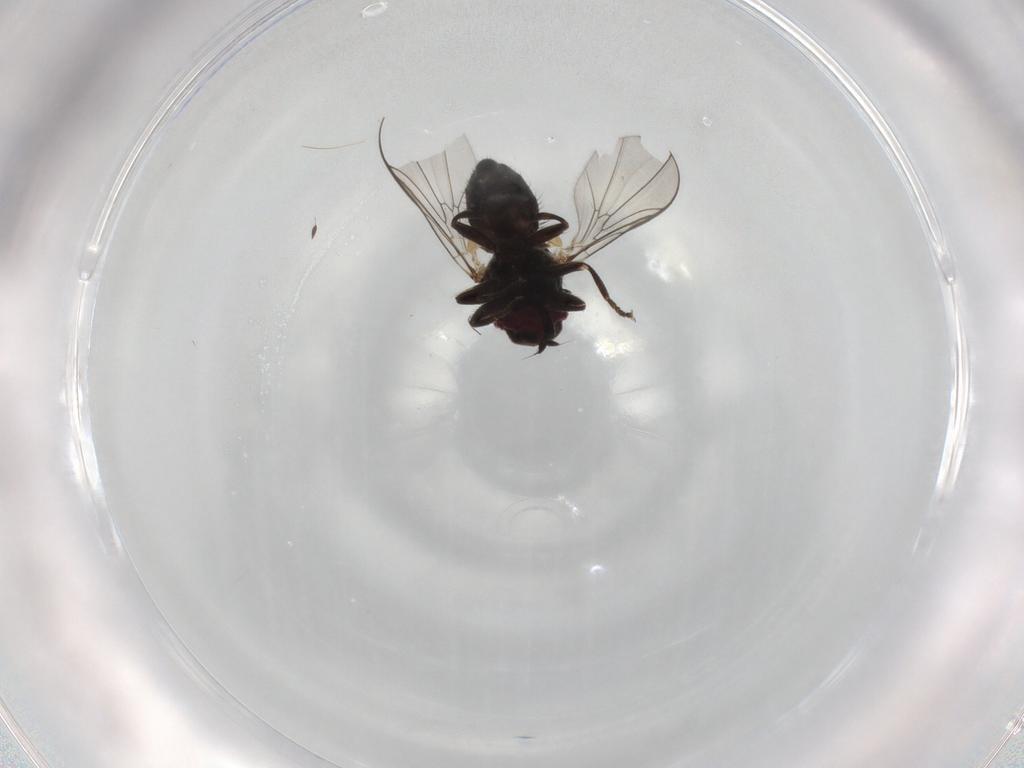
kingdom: Animalia
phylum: Arthropoda
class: Insecta
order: Diptera
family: Pipunculidae
